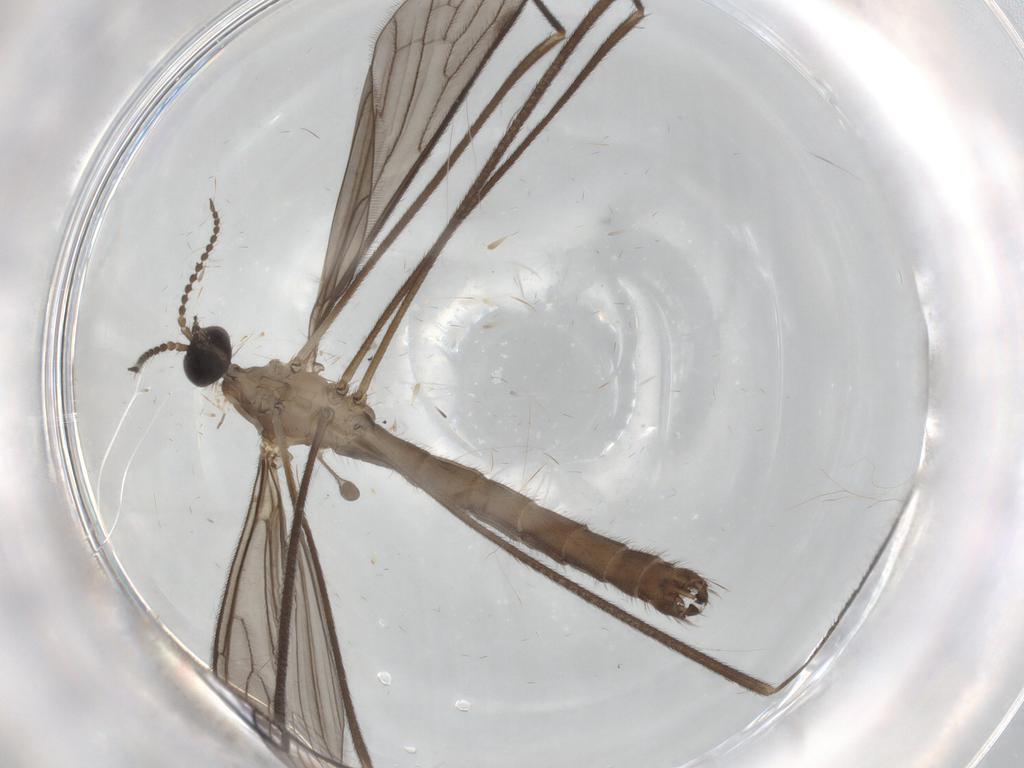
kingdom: Animalia
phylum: Arthropoda
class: Insecta
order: Diptera
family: Limoniidae
